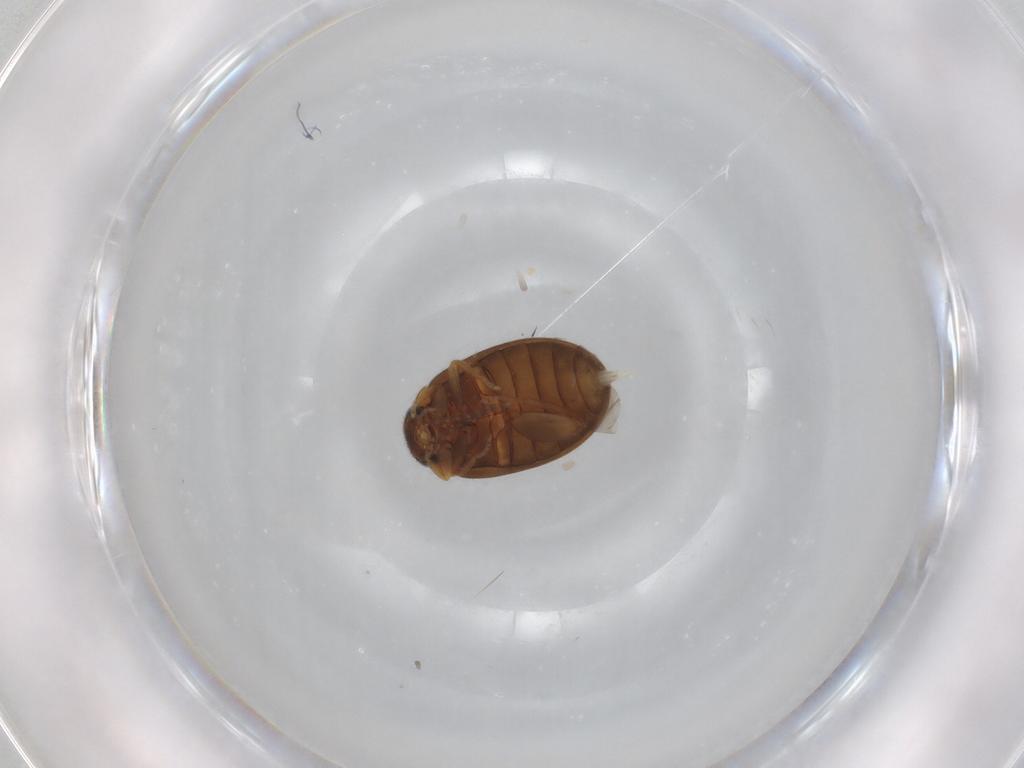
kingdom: Animalia
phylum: Arthropoda
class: Insecta
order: Coleoptera
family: Scirtidae
